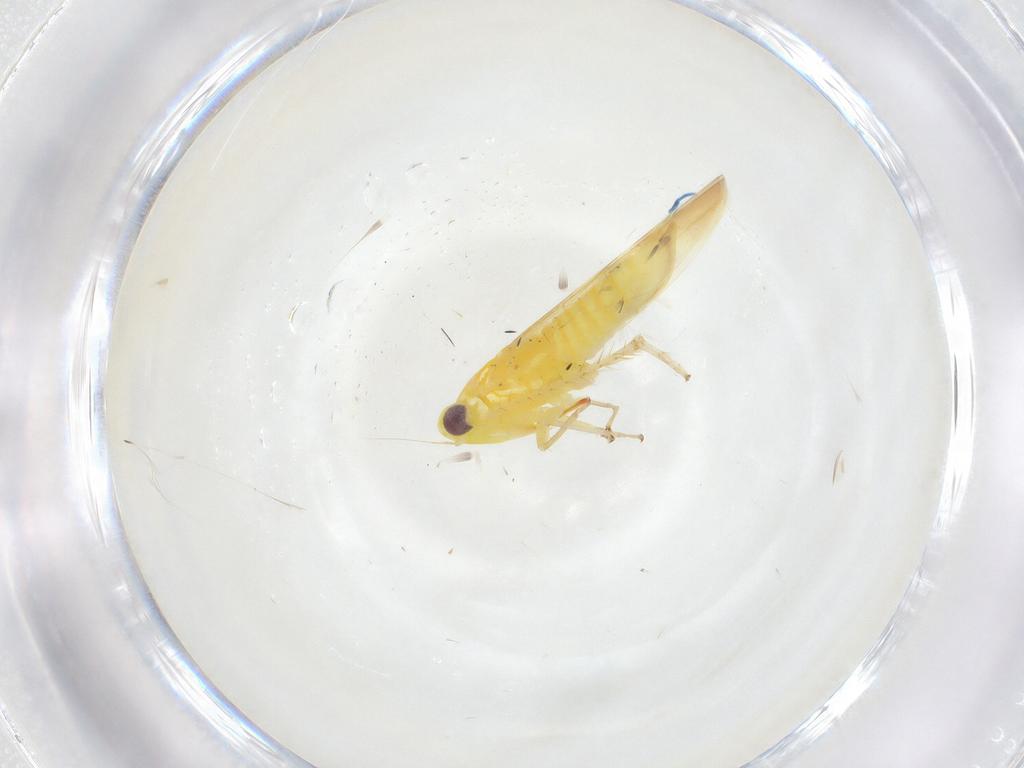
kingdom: Animalia
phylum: Arthropoda
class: Insecta
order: Hemiptera
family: Cicadellidae
